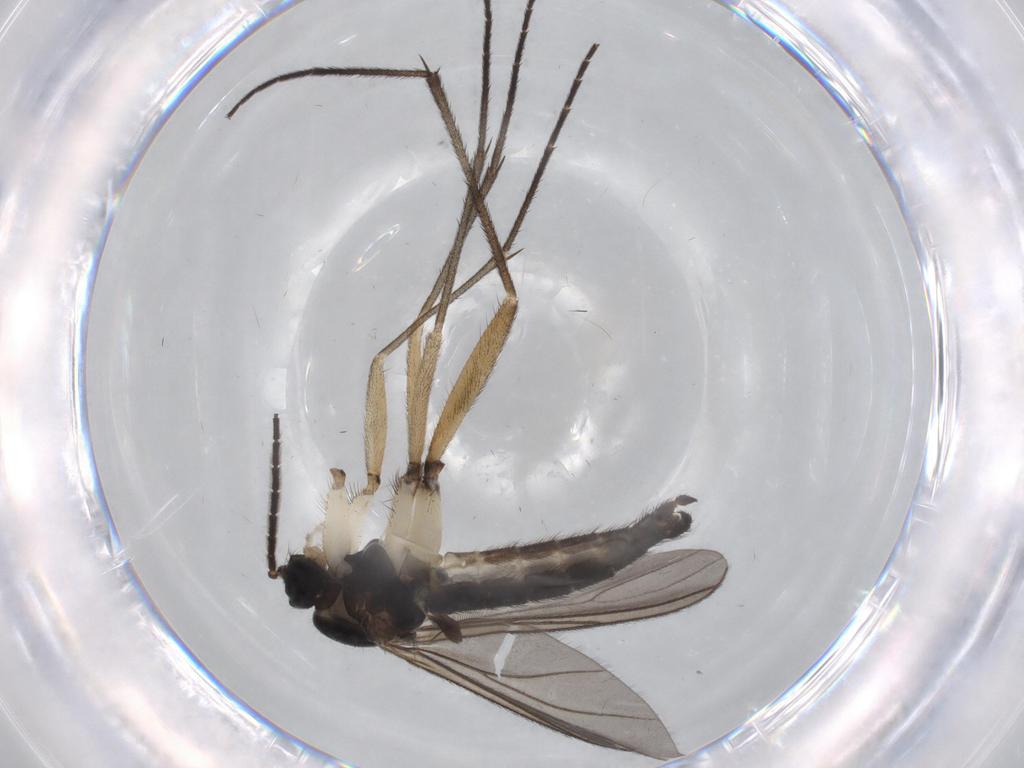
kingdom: Animalia
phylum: Arthropoda
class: Insecta
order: Diptera
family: Sciaridae
